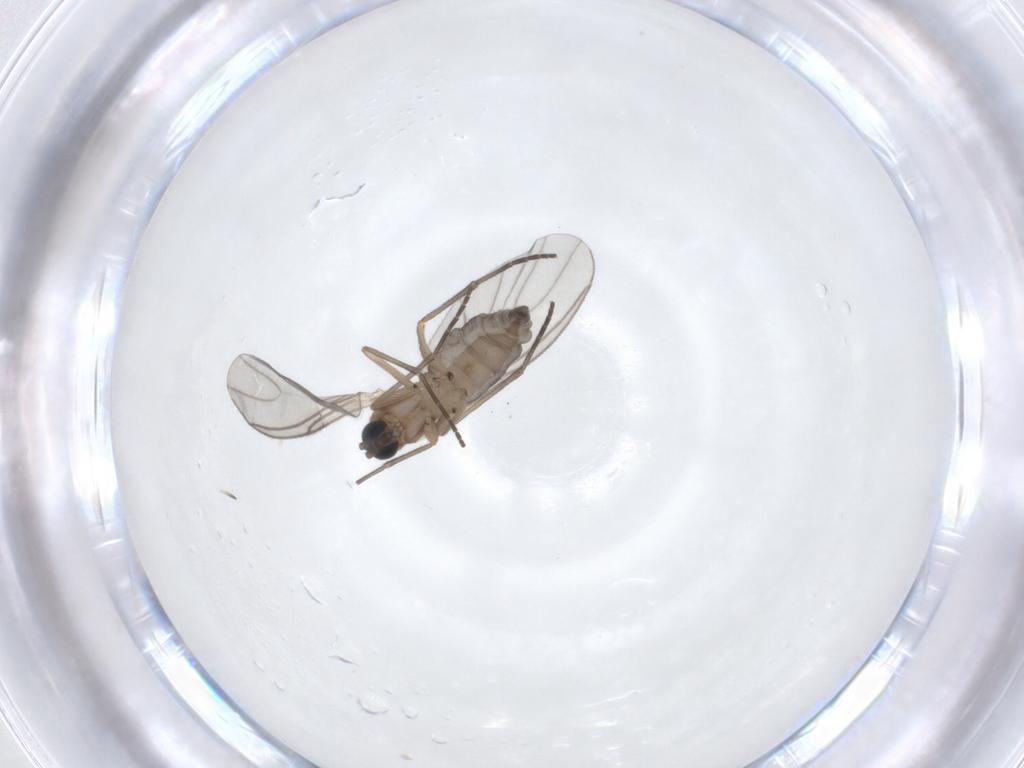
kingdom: Animalia
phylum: Arthropoda
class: Insecta
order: Diptera
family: Sciaridae
